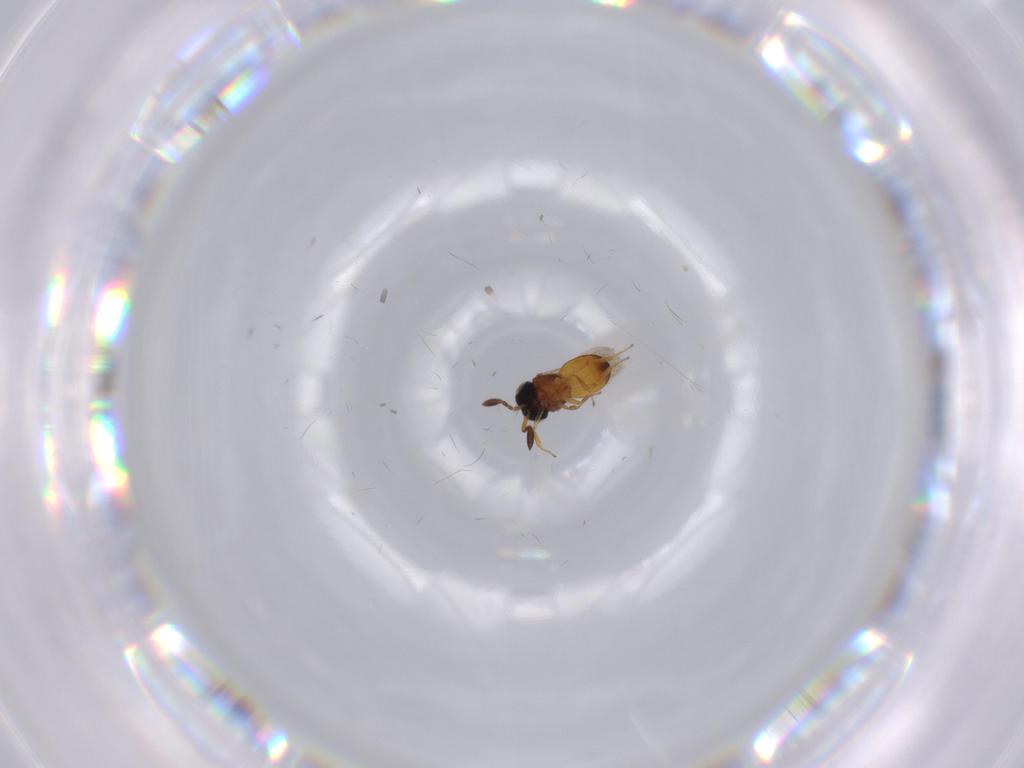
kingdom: Animalia
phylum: Arthropoda
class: Insecta
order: Hymenoptera
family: Scelionidae
